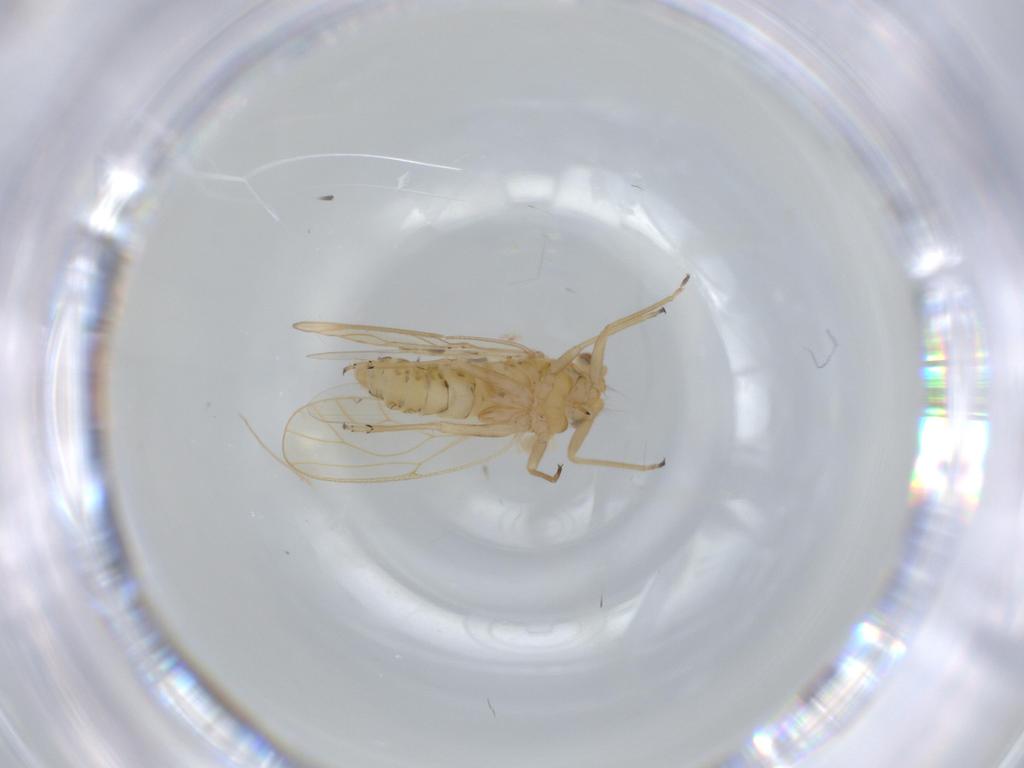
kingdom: Animalia
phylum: Arthropoda
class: Insecta
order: Hemiptera
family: Psyllidae
